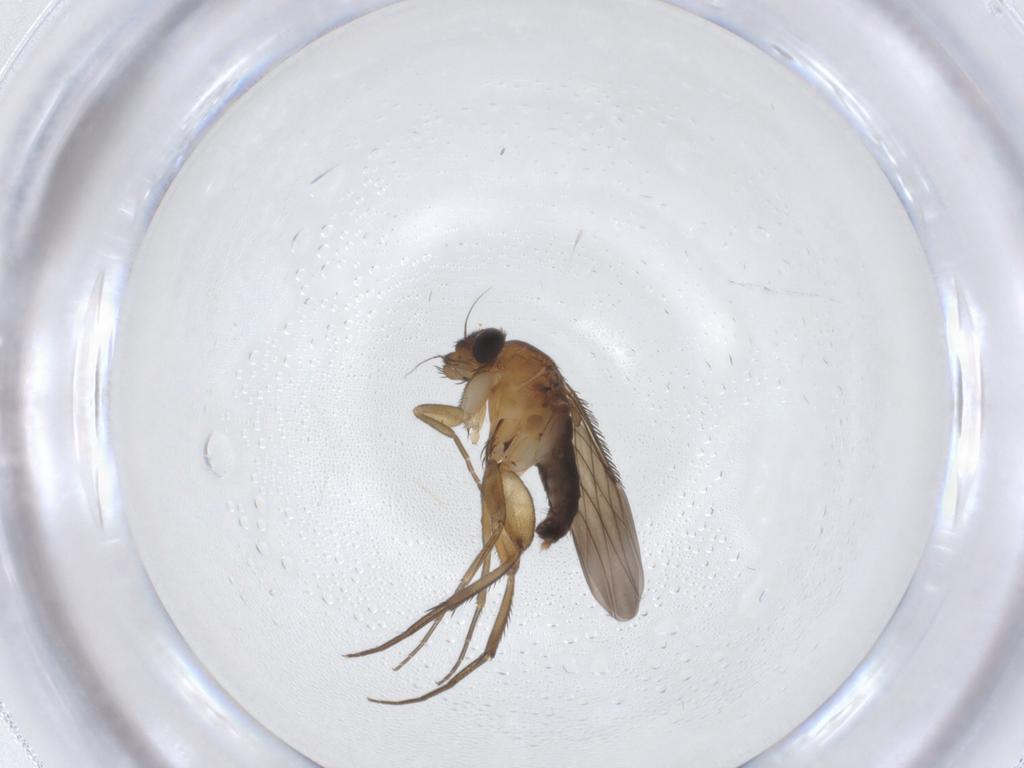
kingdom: Animalia
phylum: Arthropoda
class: Insecta
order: Diptera
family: Phoridae
